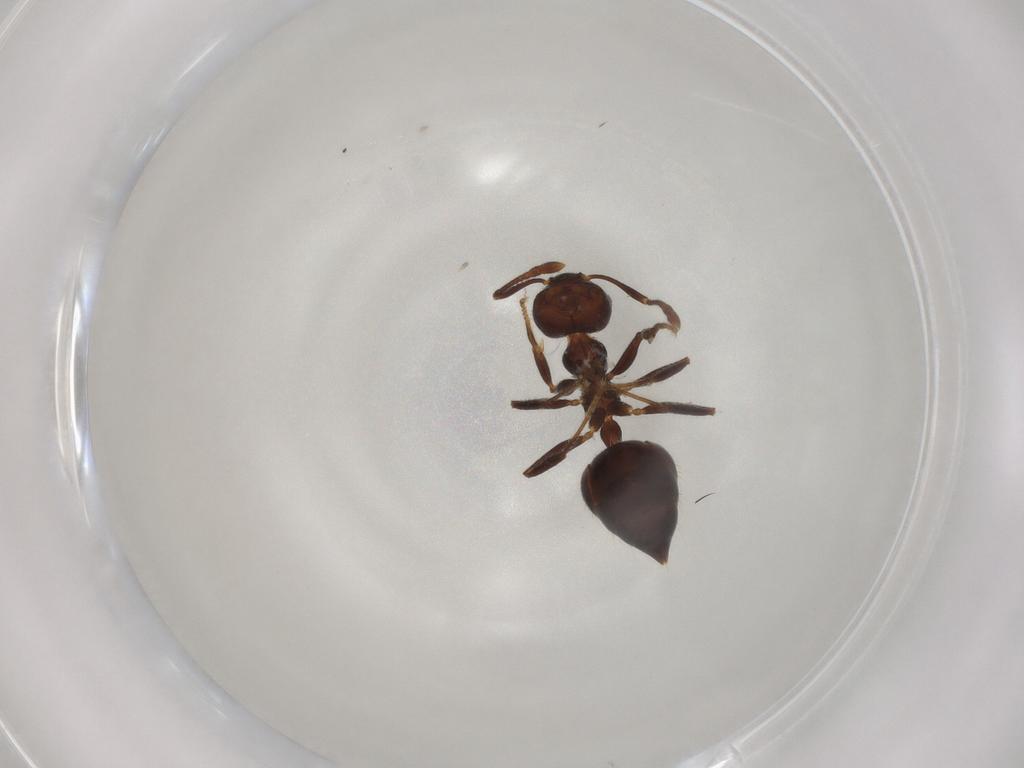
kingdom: Animalia
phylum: Arthropoda
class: Insecta
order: Hymenoptera
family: Formicidae
